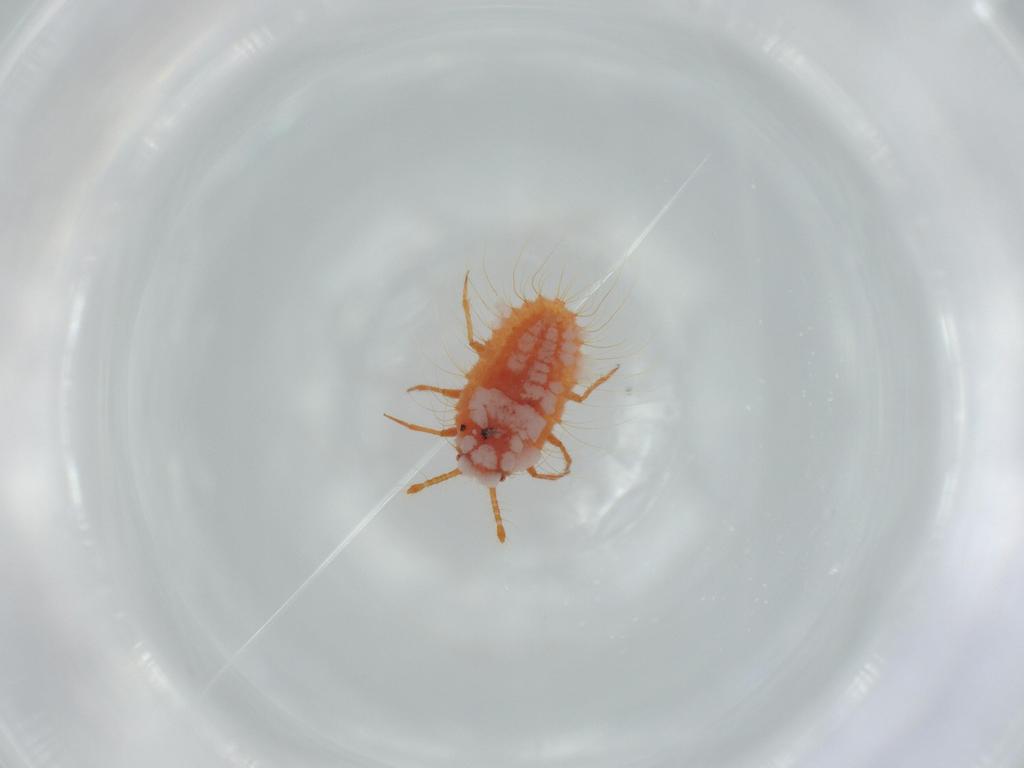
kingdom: Animalia
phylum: Arthropoda
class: Insecta
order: Hemiptera
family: Coccoidea_incertae_sedis
